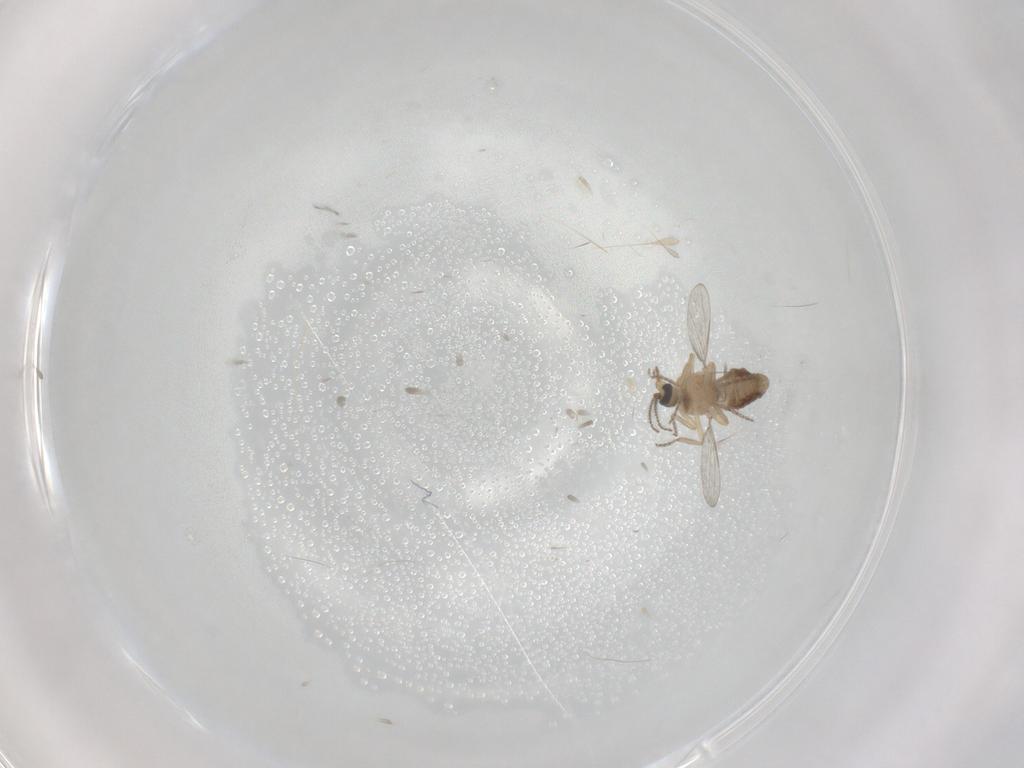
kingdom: Animalia
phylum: Arthropoda
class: Insecta
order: Diptera
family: Ceratopogonidae
